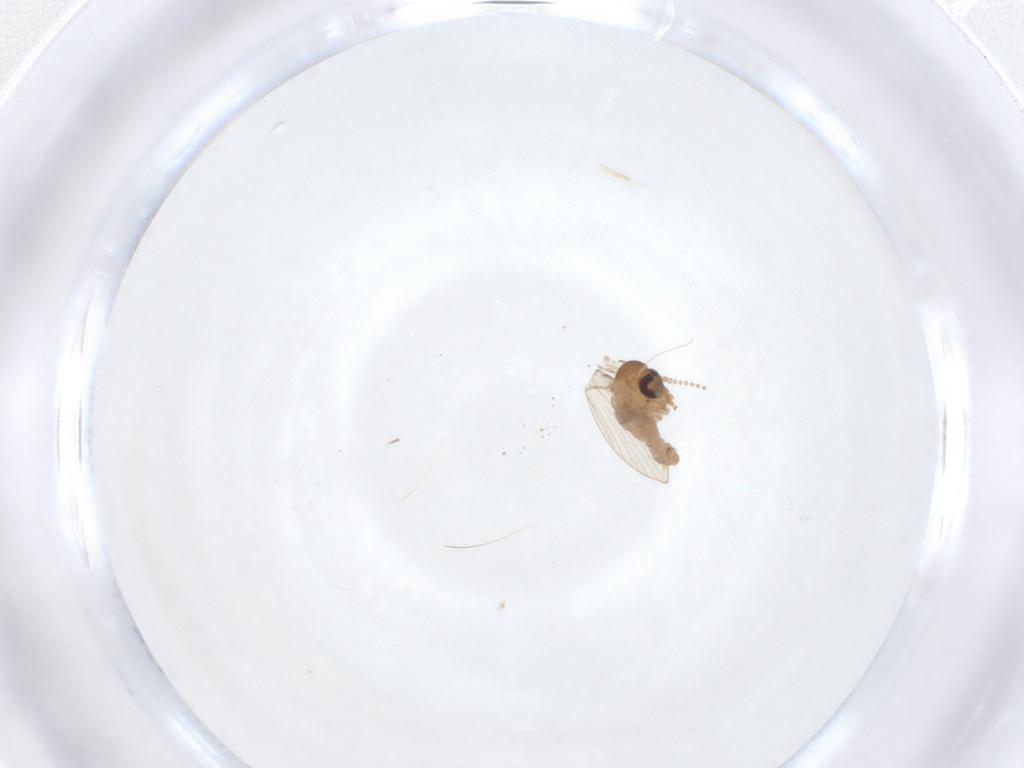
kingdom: Animalia
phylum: Arthropoda
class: Insecta
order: Diptera
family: Psychodidae
